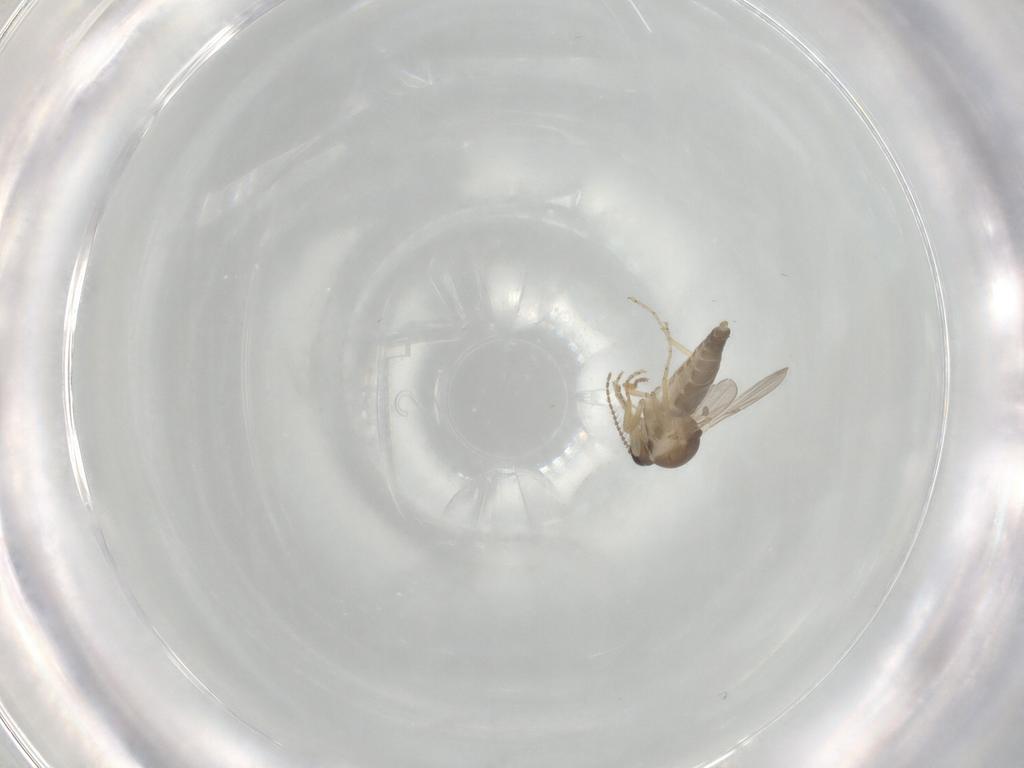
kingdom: Animalia
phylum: Arthropoda
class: Insecta
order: Diptera
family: Ceratopogonidae
